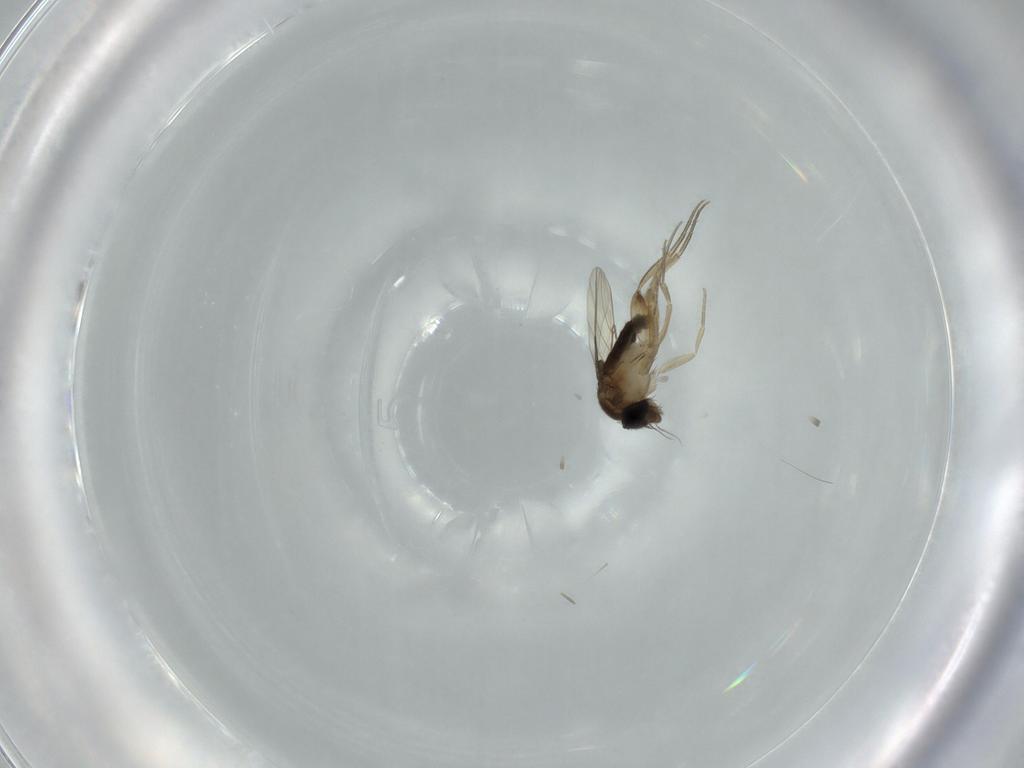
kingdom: Animalia
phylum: Arthropoda
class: Insecta
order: Diptera
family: Phoridae
